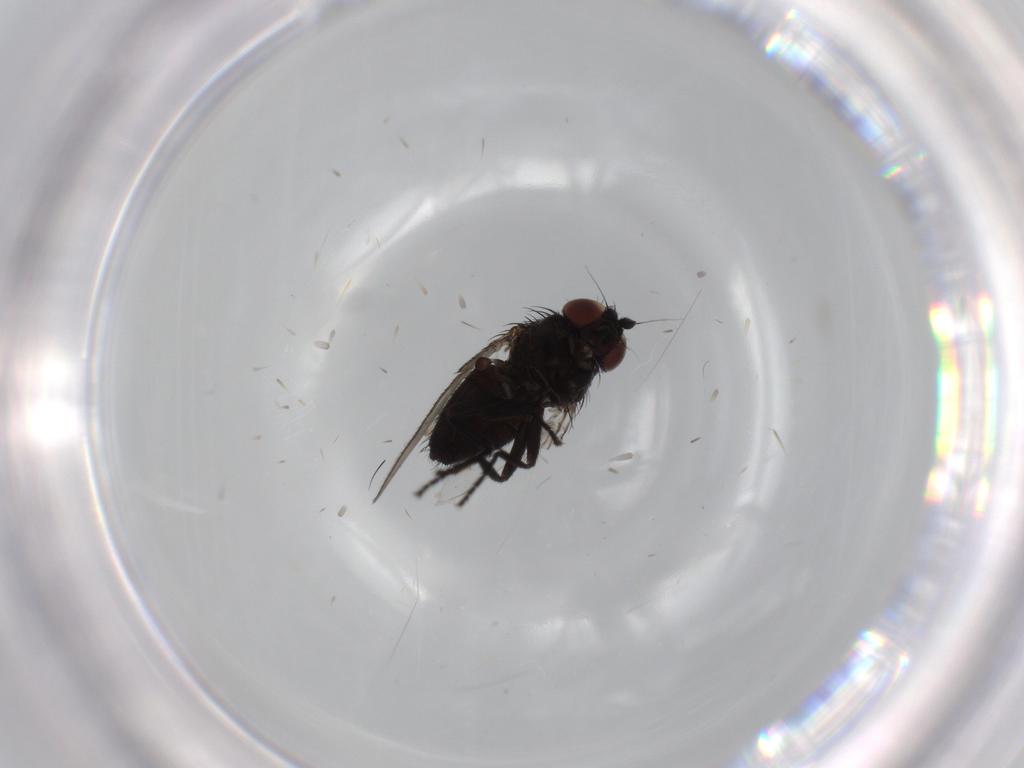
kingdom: Animalia
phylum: Arthropoda
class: Insecta
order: Diptera
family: Milichiidae
